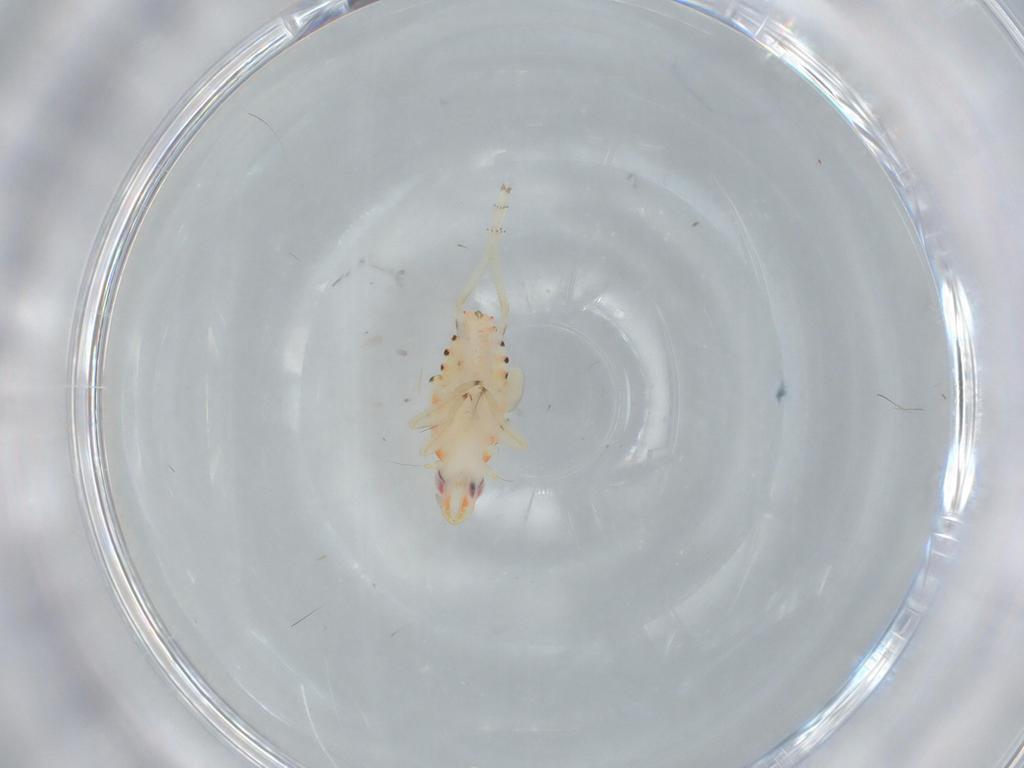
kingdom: Animalia
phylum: Arthropoda
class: Insecta
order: Hemiptera
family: Tropiduchidae
